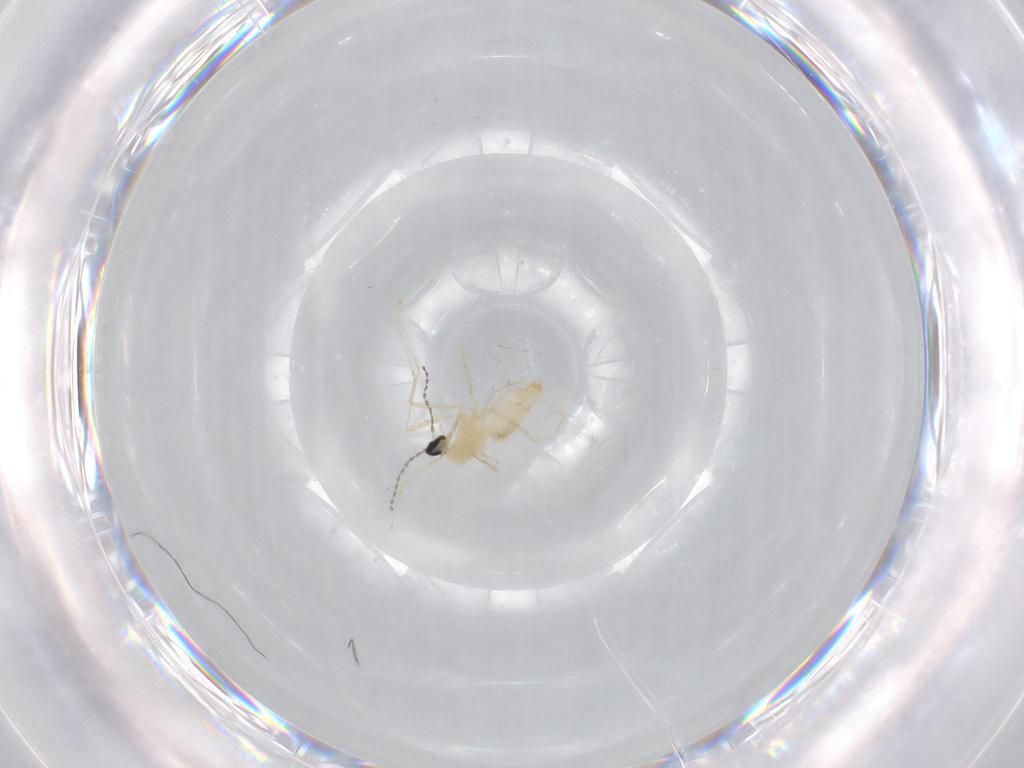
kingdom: Animalia
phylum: Arthropoda
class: Insecta
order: Diptera
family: Cecidomyiidae
